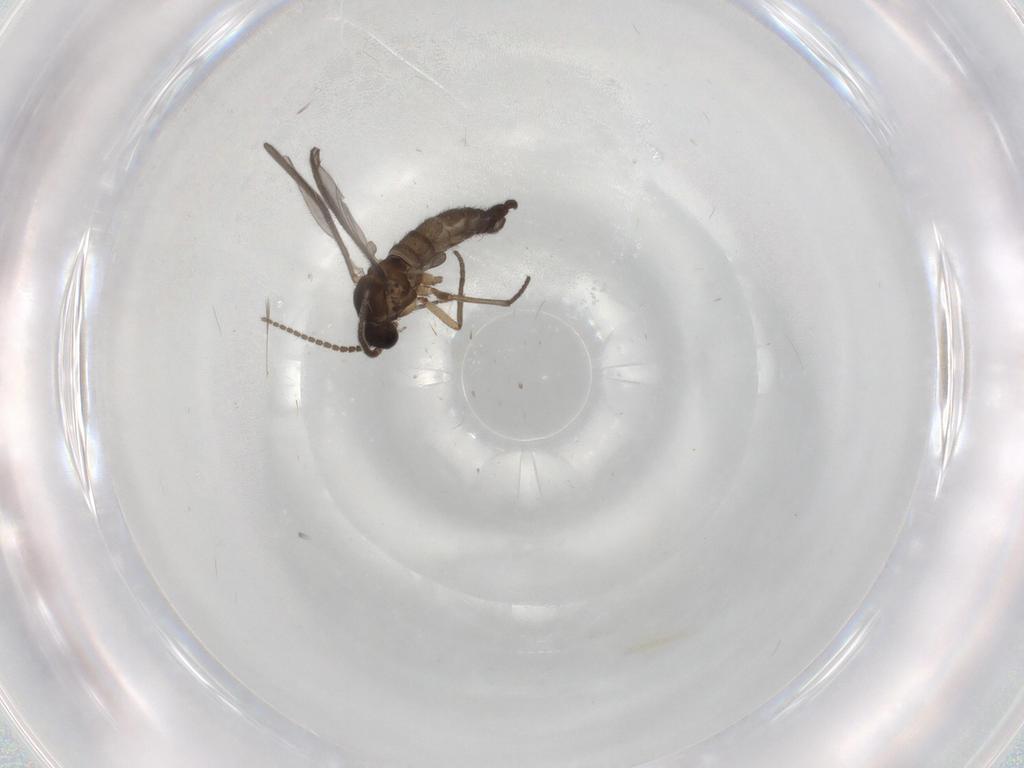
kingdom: Animalia
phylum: Arthropoda
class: Insecta
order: Diptera
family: Sciaridae
